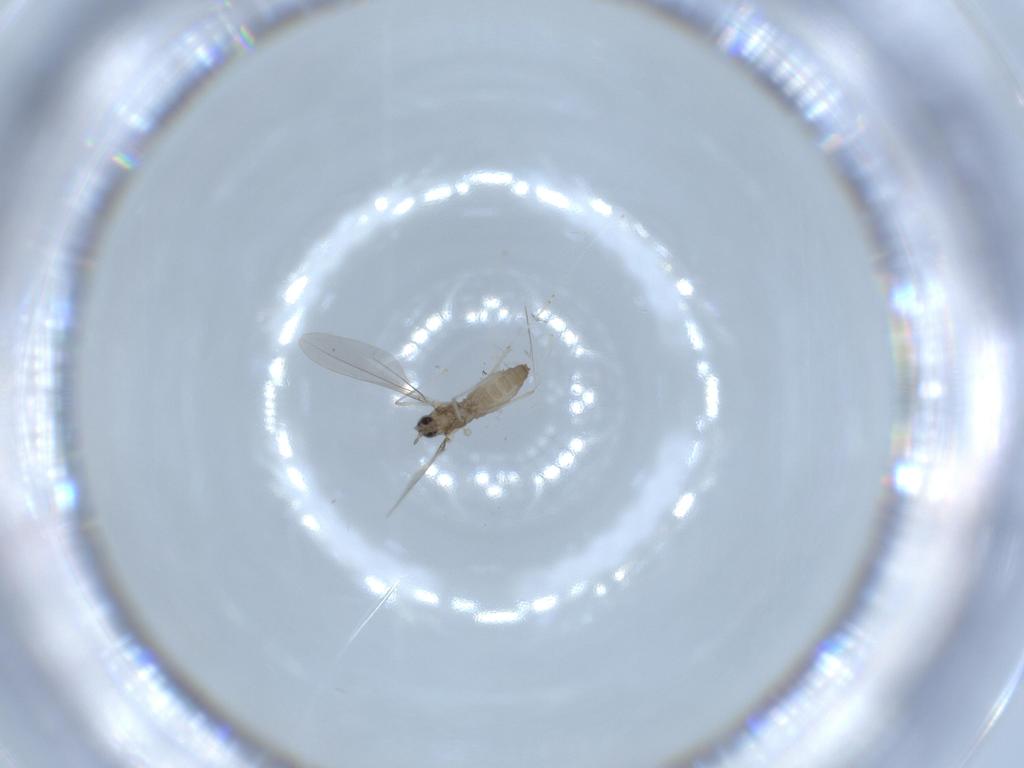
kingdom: Animalia
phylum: Arthropoda
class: Insecta
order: Diptera
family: Cecidomyiidae
